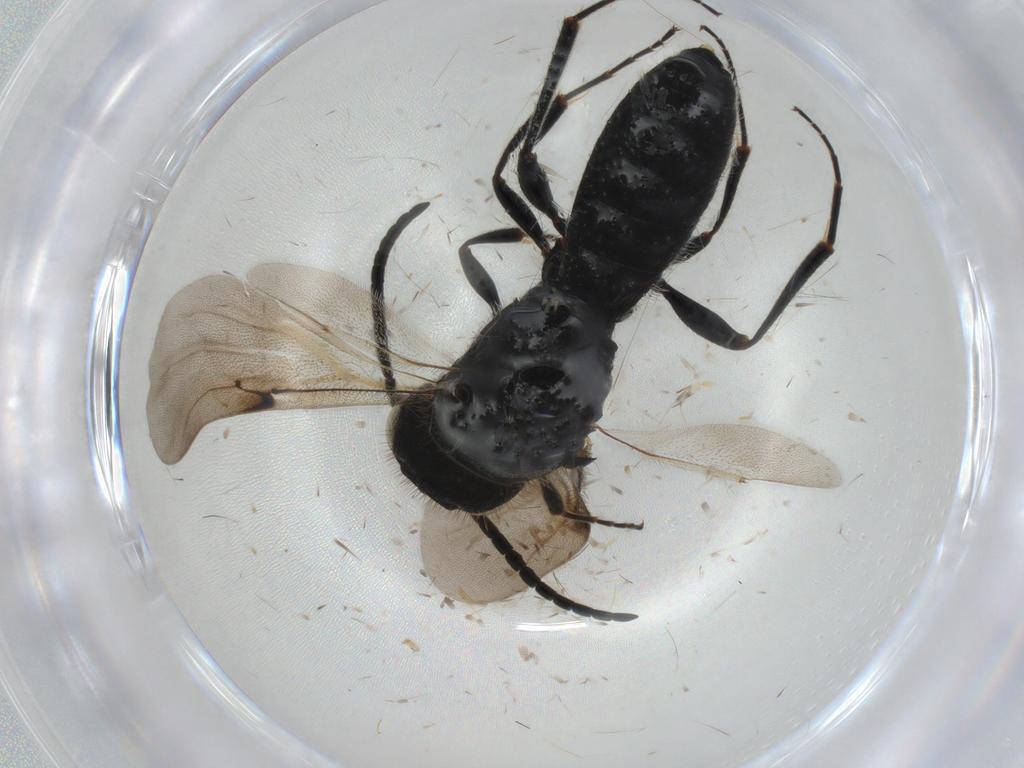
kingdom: Animalia
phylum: Arthropoda
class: Insecta
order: Hymenoptera
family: Sparasionidae
